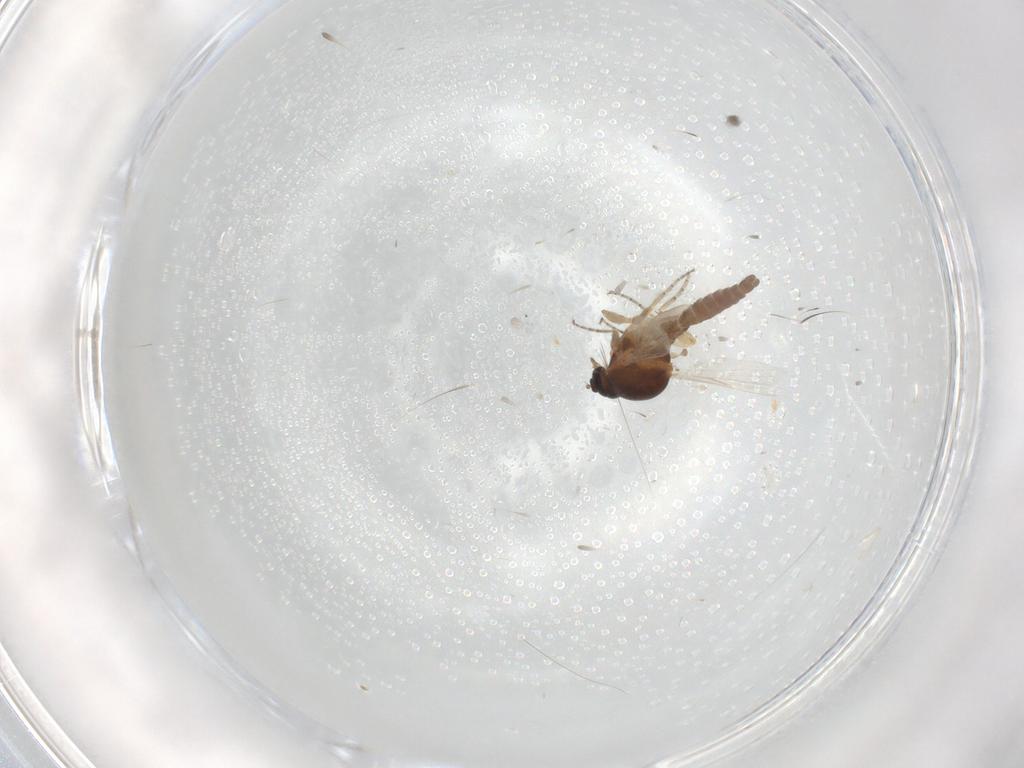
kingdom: Animalia
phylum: Arthropoda
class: Insecta
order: Diptera
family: Ceratopogonidae
